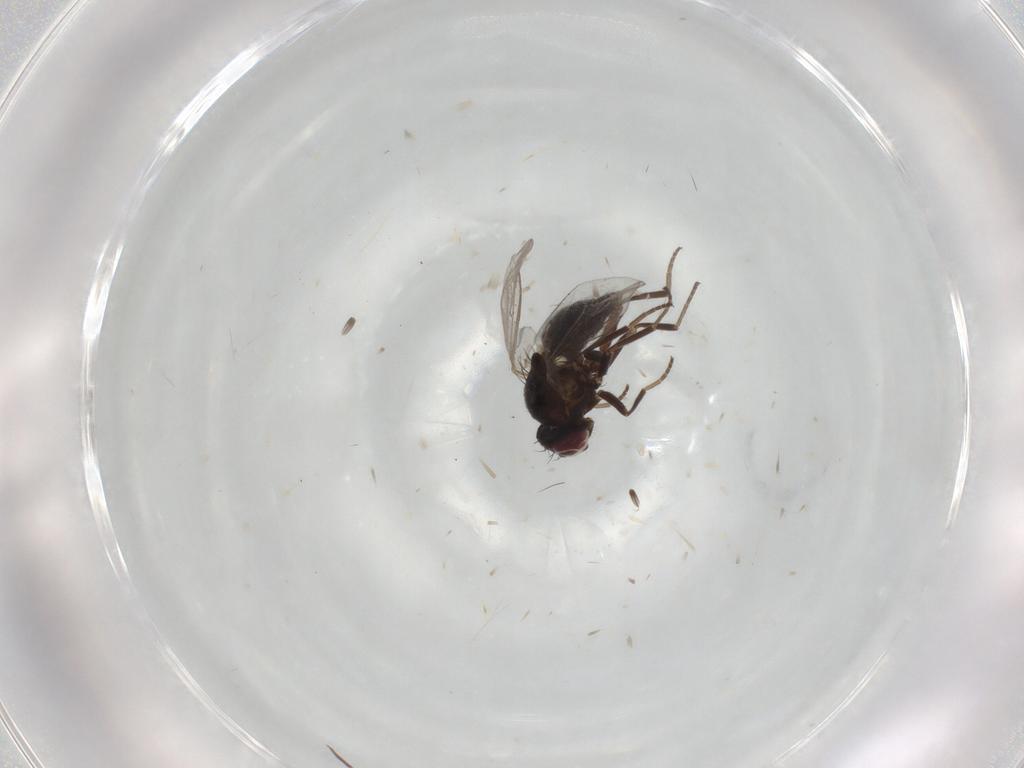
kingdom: Animalia
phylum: Arthropoda
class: Insecta
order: Diptera
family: Tachinidae
